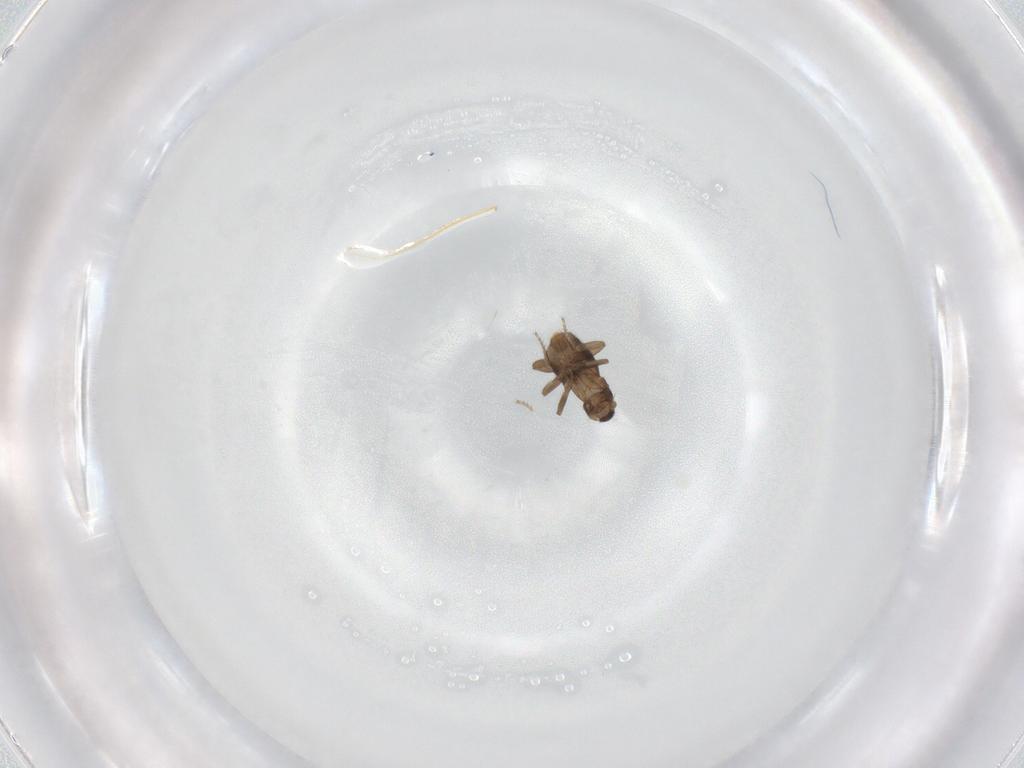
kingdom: Animalia
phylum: Arthropoda
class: Insecta
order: Diptera
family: Phoridae
